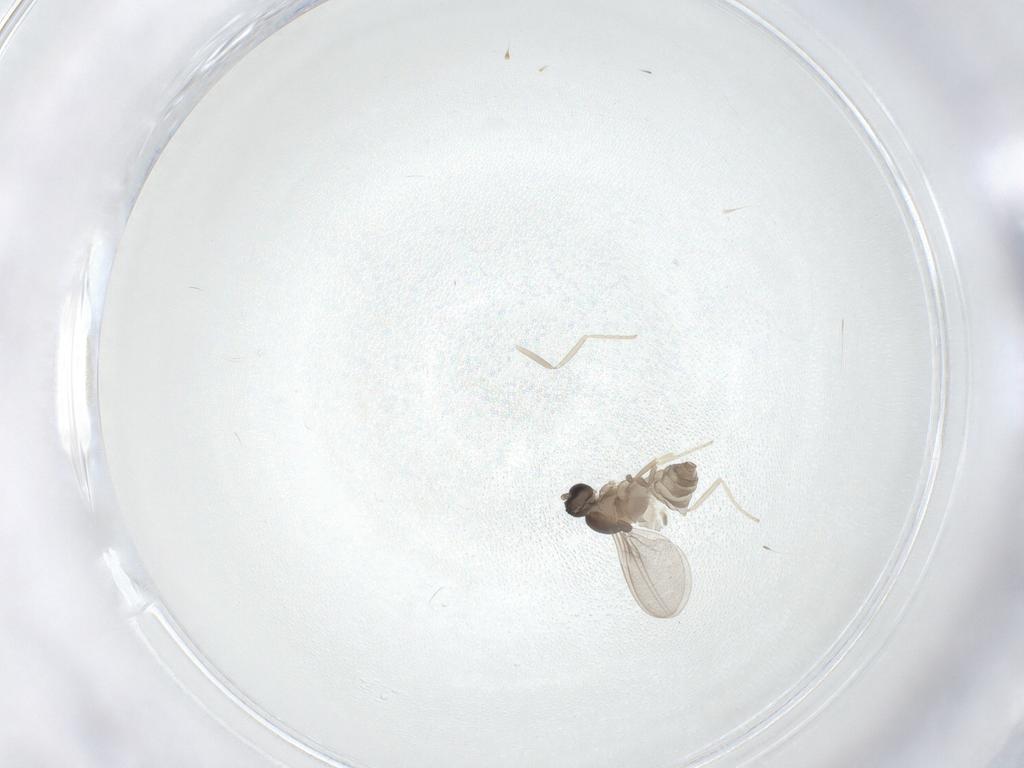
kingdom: Animalia
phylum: Arthropoda
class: Insecta
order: Diptera
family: Cecidomyiidae
